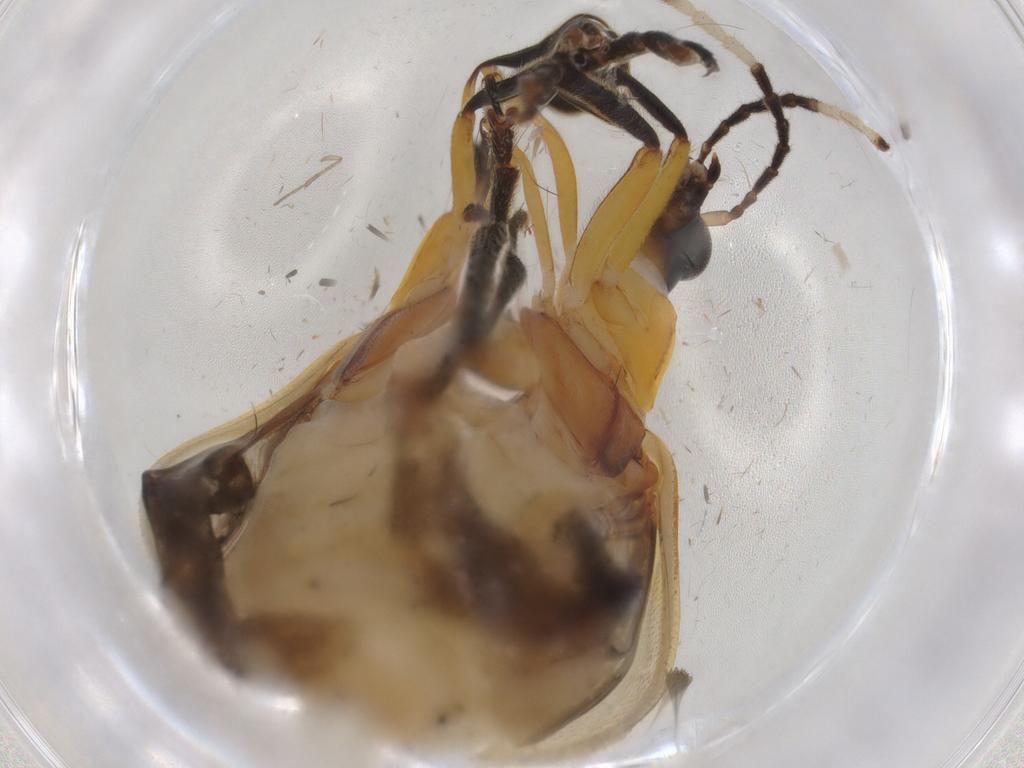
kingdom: Animalia
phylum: Arthropoda
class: Insecta
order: Coleoptera
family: Chrysomelidae
